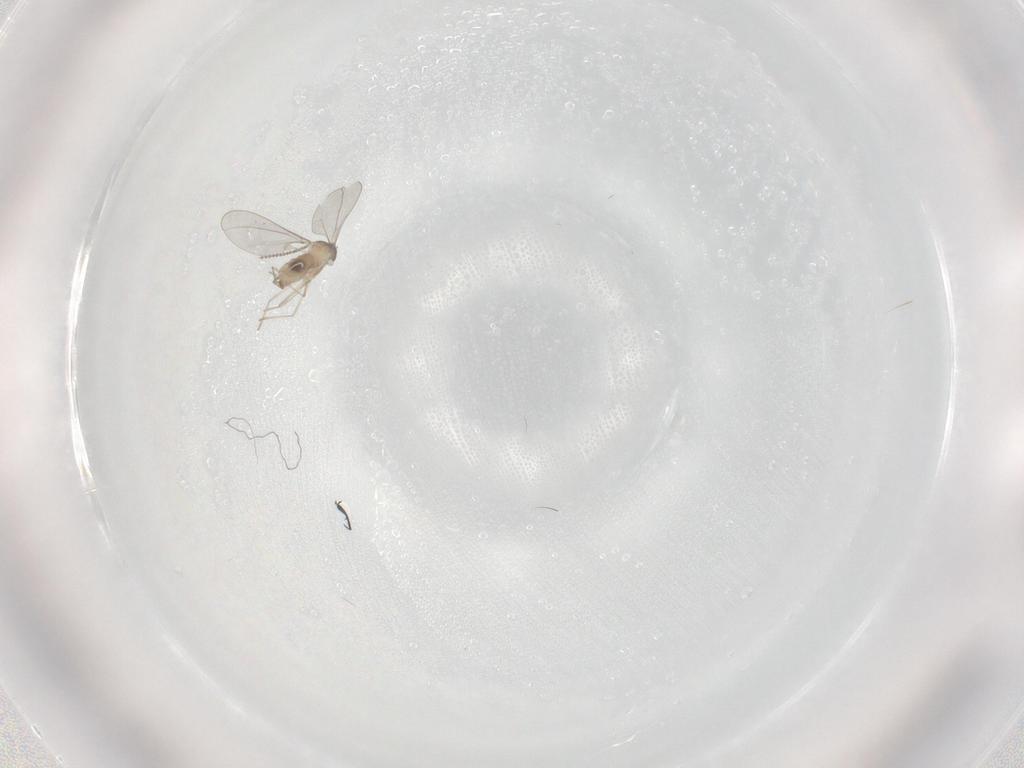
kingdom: Animalia
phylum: Arthropoda
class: Insecta
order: Diptera
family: Cecidomyiidae
